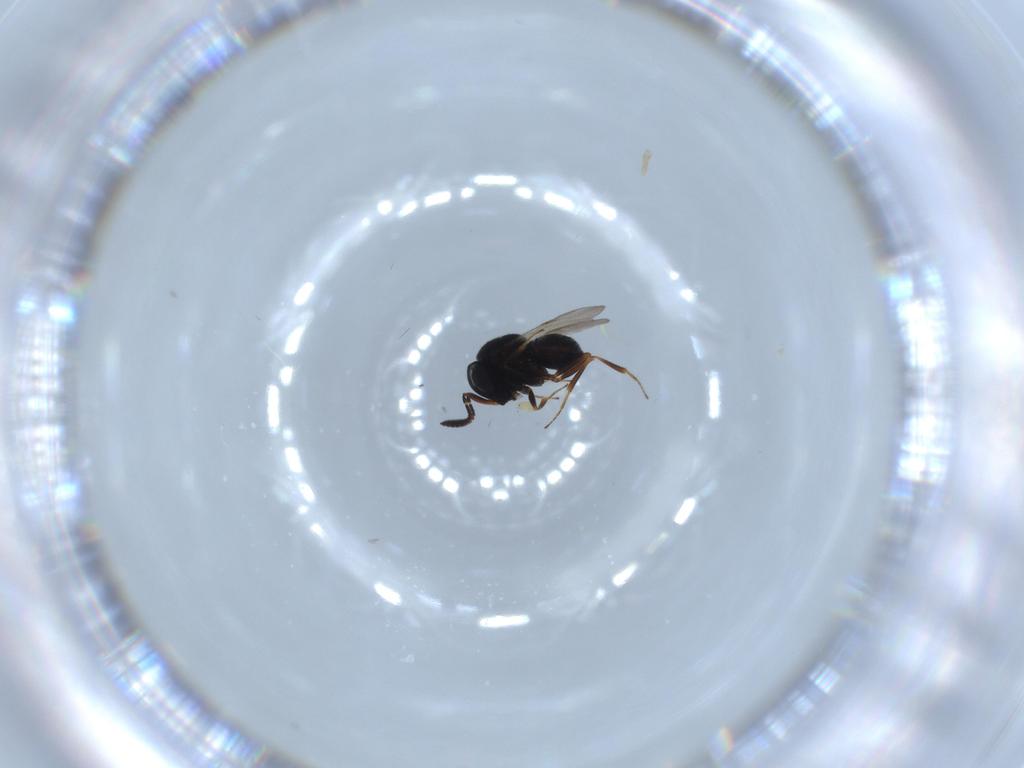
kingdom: Animalia
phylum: Arthropoda
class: Insecta
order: Hymenoptera
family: Scelionidae
